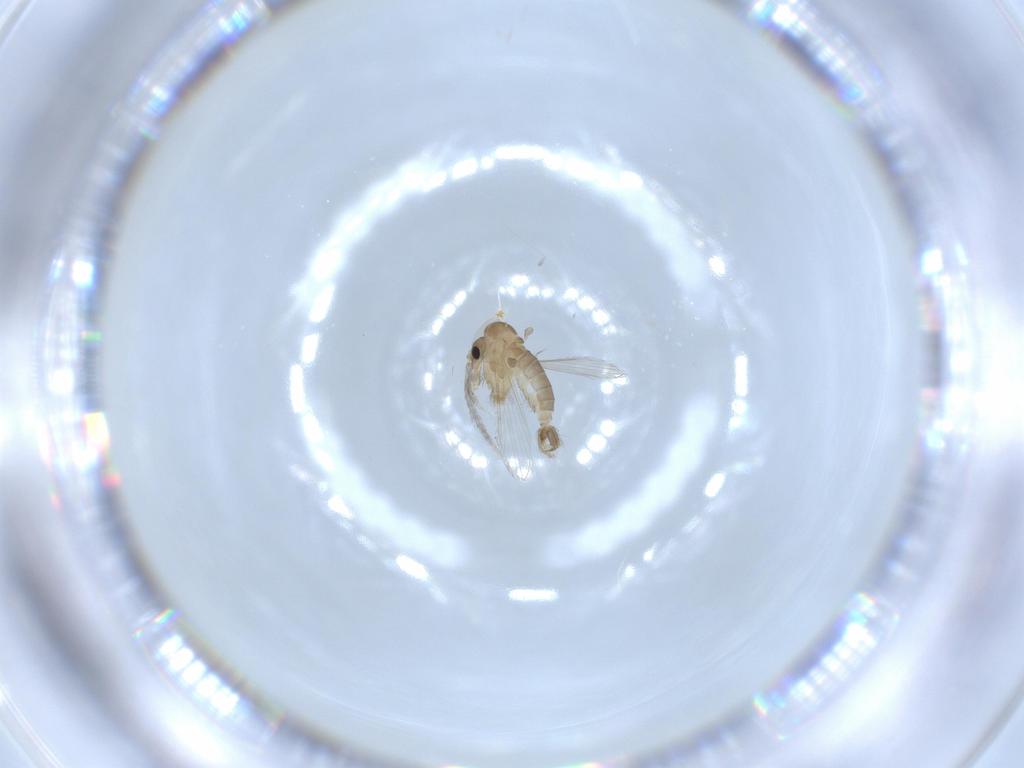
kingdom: Animalia
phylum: Arthropoda
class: Insecta
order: Diptera
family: Psychodidae
